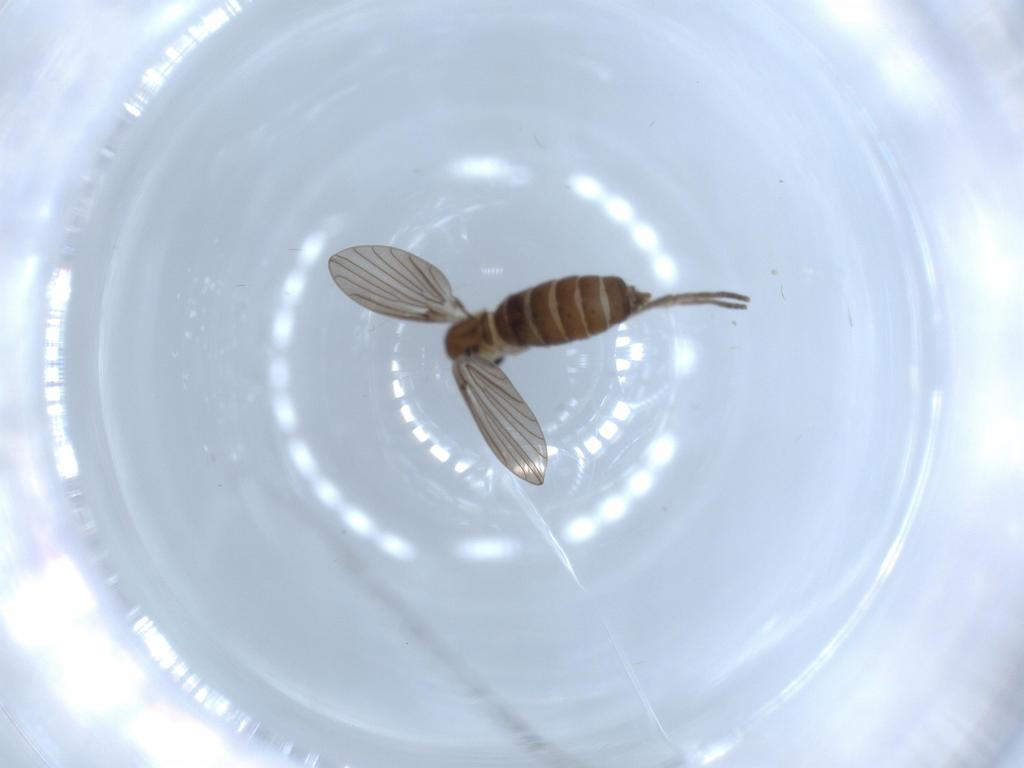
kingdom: Animalia
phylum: Arthropoda
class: Insecta
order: Diptera
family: Psychodidae
